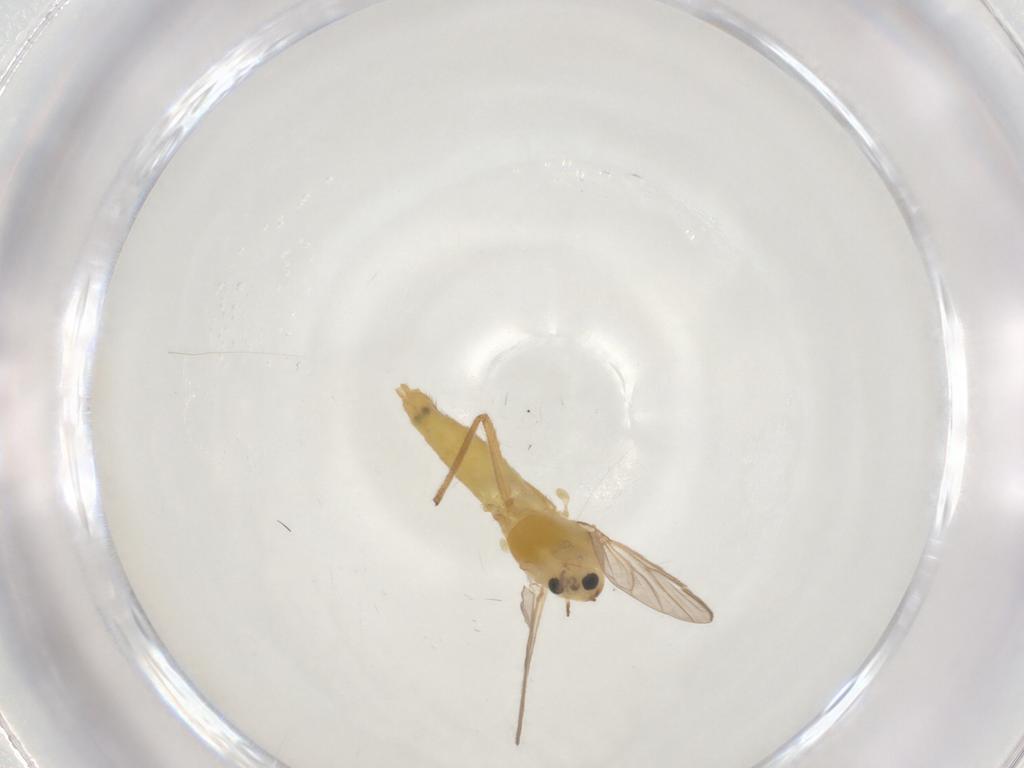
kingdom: Animalia
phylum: Arthropoda
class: Insecta
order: Diptera
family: Chironomidae
